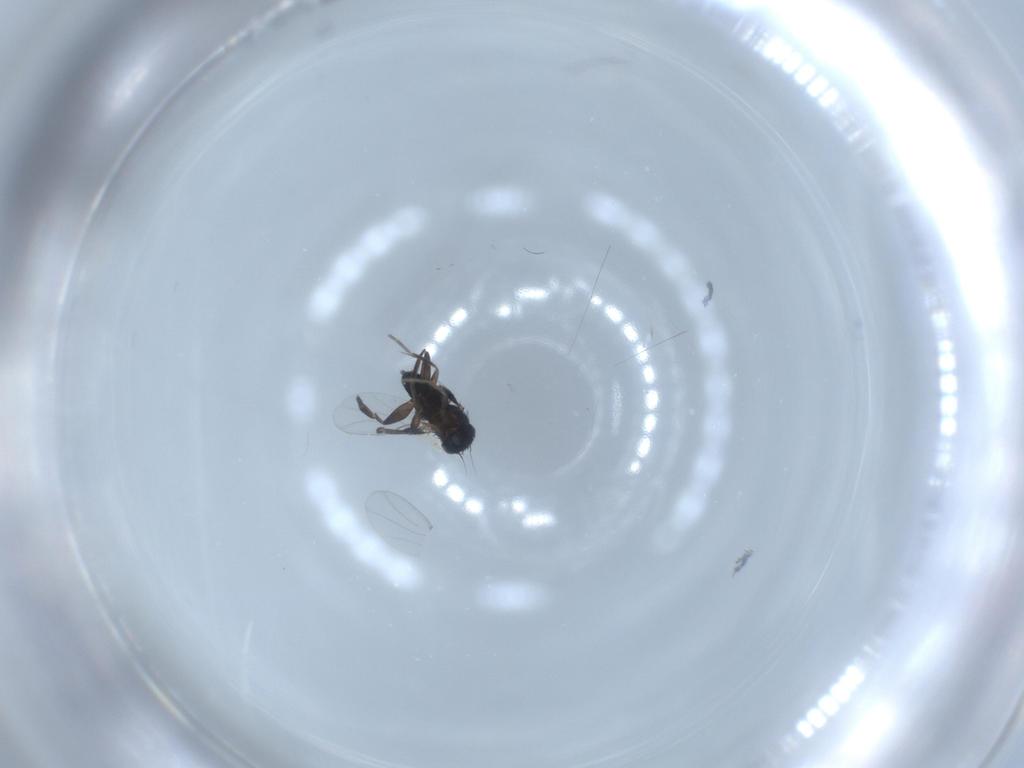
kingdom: Animalia
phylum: Arthropoda
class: Insecta
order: Diptera
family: Phoridae
